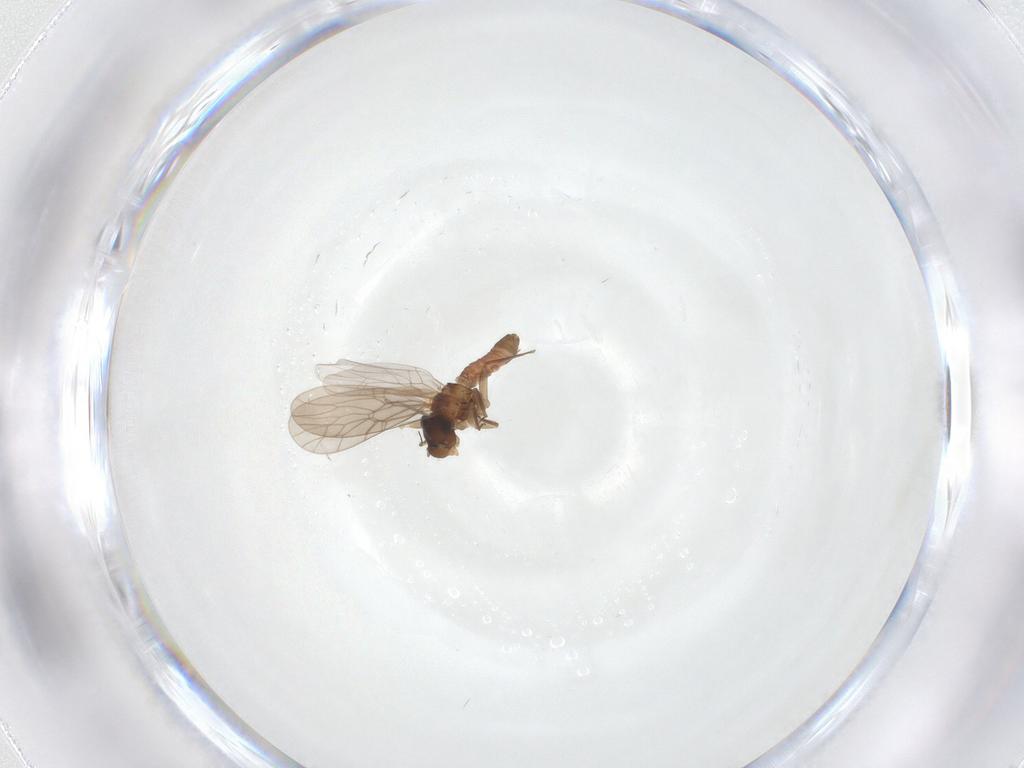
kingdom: Animalia
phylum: Arthropoda
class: Insecta
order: Psocodea
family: Lepidopsocidae
